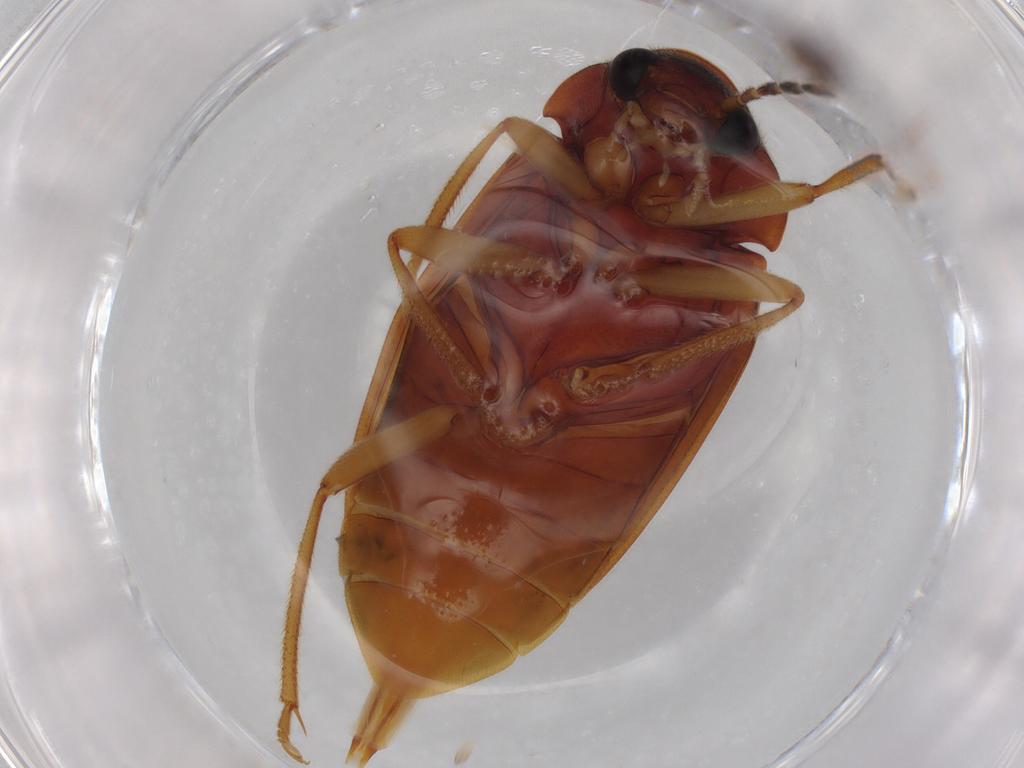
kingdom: Animalia
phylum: Arthropoda
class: Insecta
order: Coleoptera
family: Ptilodactylidae
